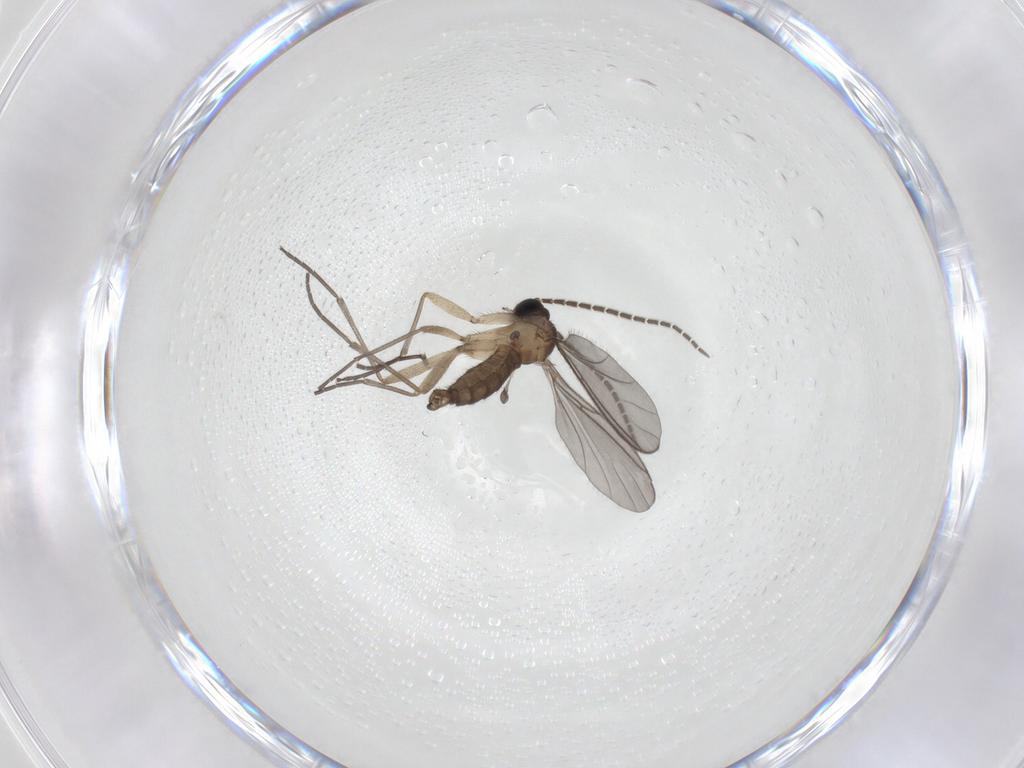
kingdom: Animalia
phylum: Arthropoda
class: Insecta
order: Diptera
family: Sciaridae
